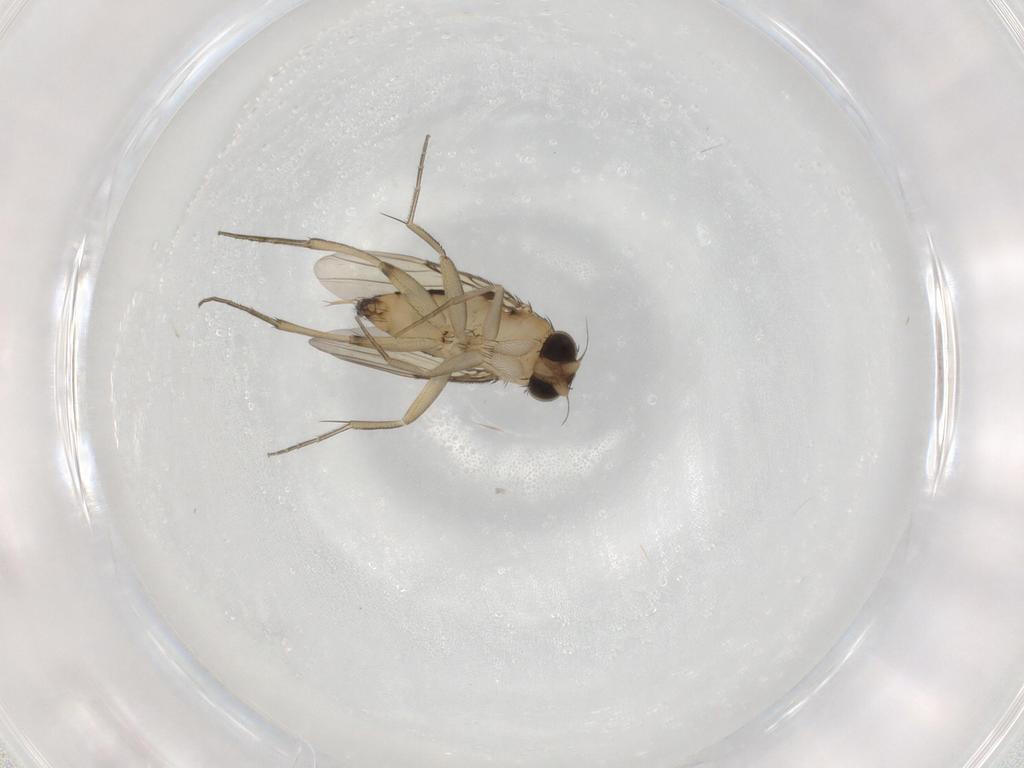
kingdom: Animalia
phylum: Arthropoda
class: Insecta
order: Diptera
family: Phoridae
